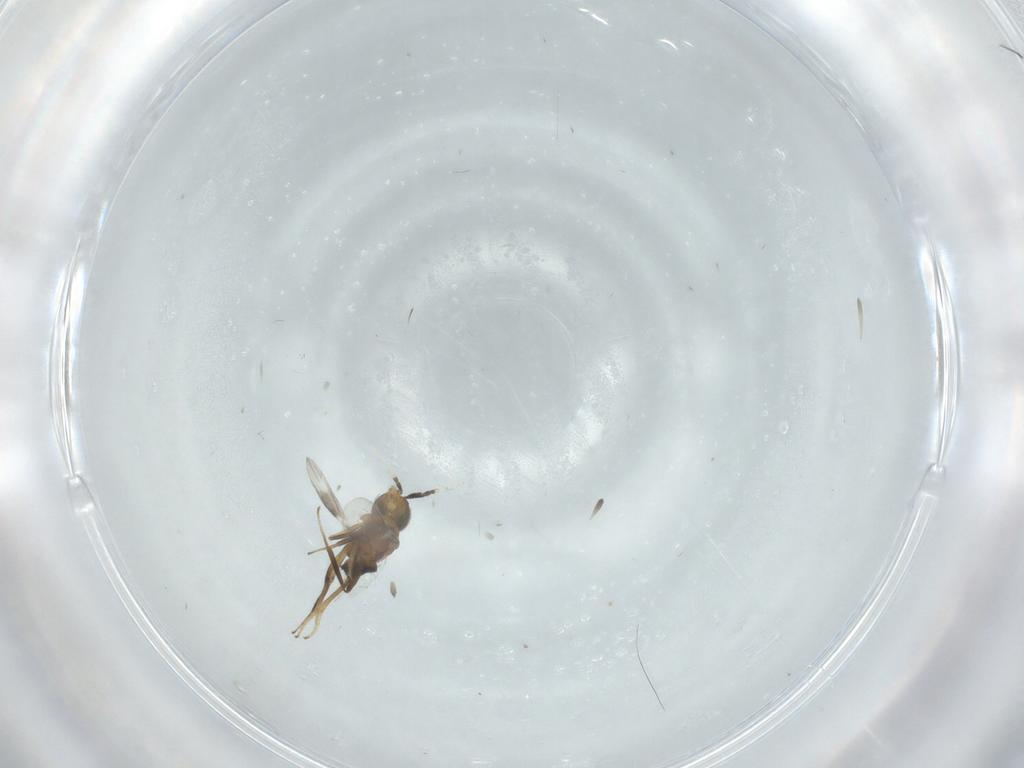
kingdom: Animalia
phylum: Arthropoda
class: Insecta
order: Hymenoptera
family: Encyrtidae
